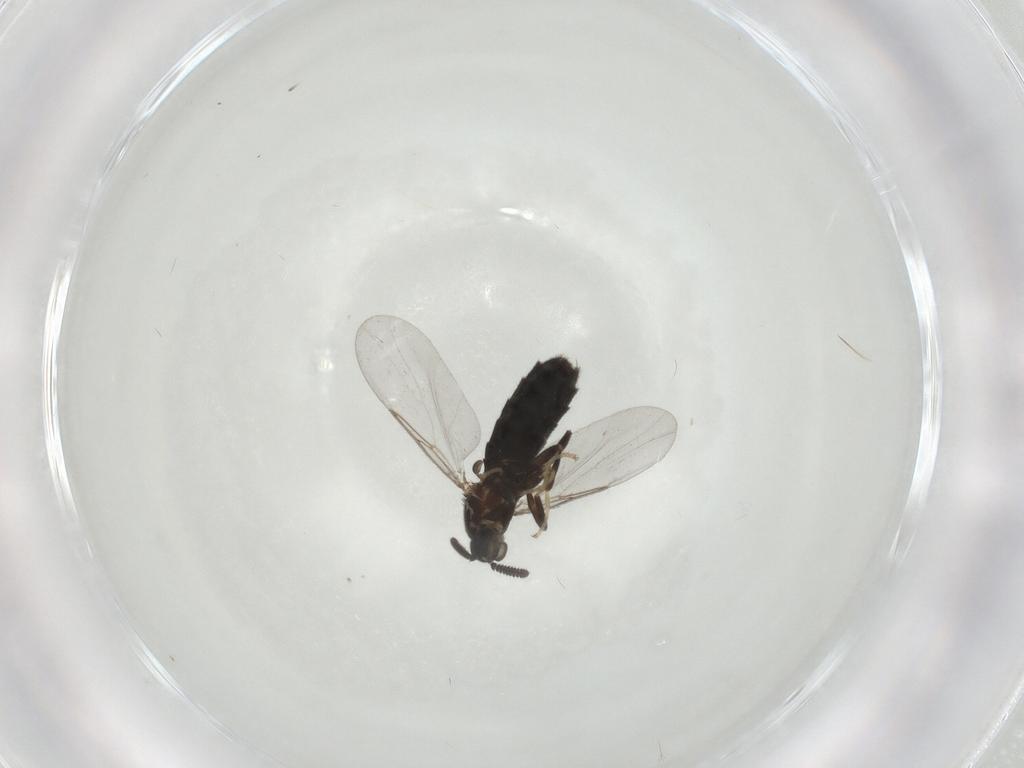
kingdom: Animalia
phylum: Arthropoda
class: Insecta
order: Diptera
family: Scatopsidae
